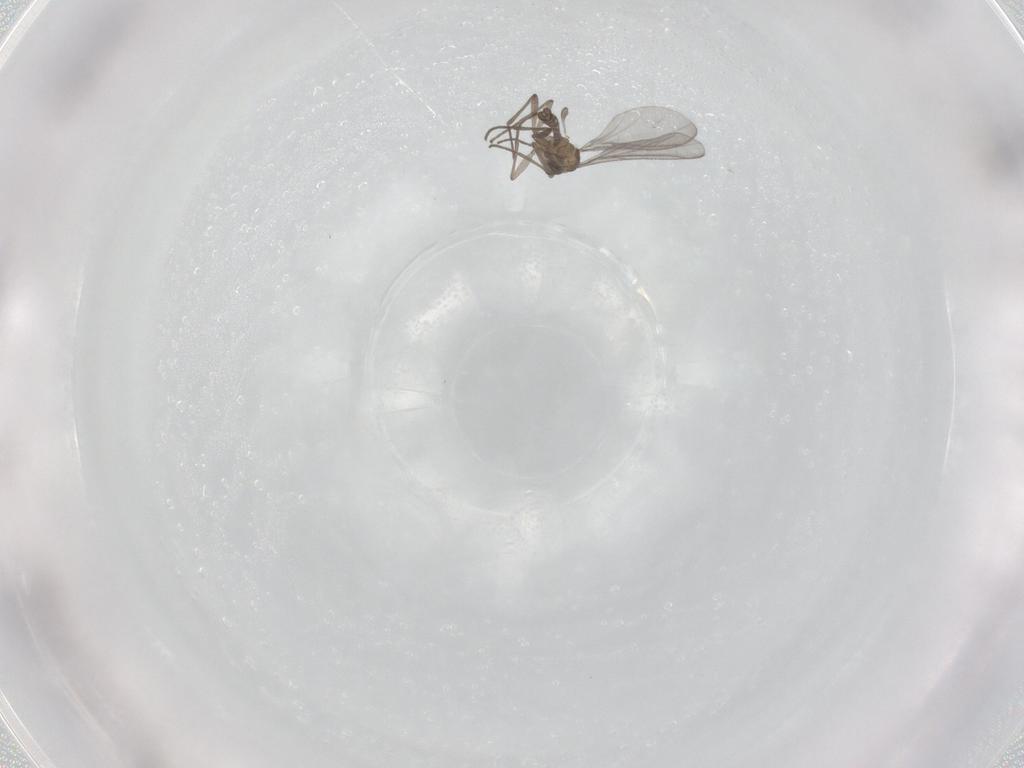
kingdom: Animalia
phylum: Arthropoda
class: Insecta
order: Diptera
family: Sciaridae
